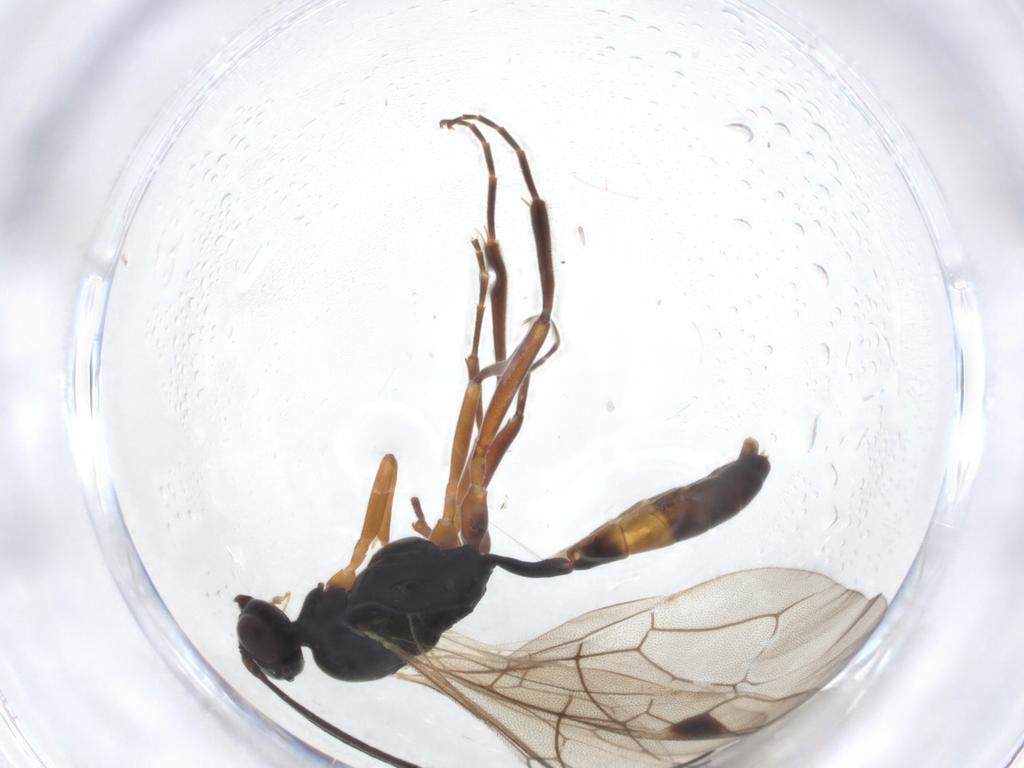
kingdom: Animalia
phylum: Arthropoda
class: Insecta
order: Hymenoptera
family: Ichneumonidae
